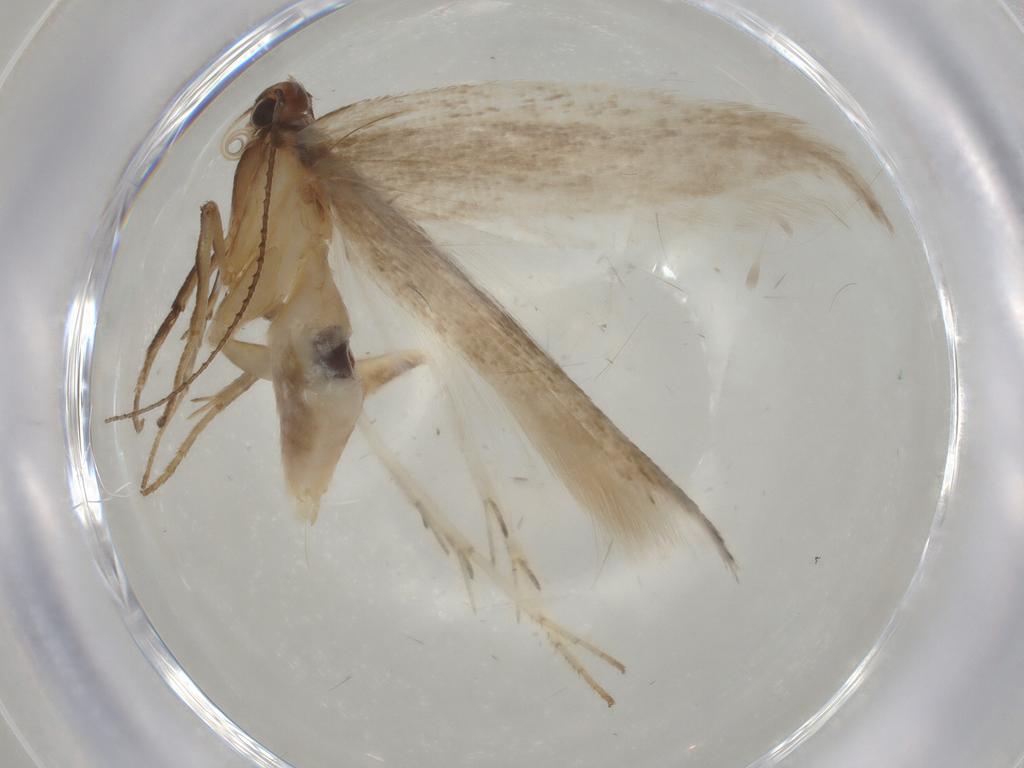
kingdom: Animalia
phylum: Arthropoda
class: Insecta
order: Lepidoptera
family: Gelechiidae
